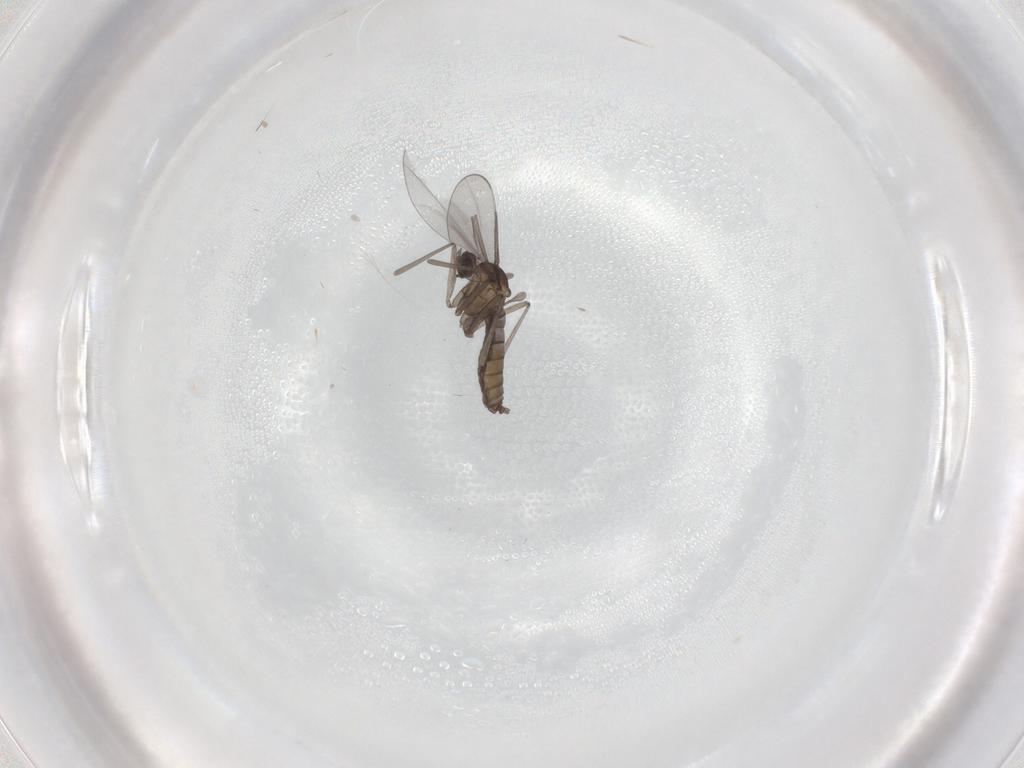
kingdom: Animalia
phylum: Arthropoda
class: Insecta
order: Diptera
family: Cecidomyiidae
